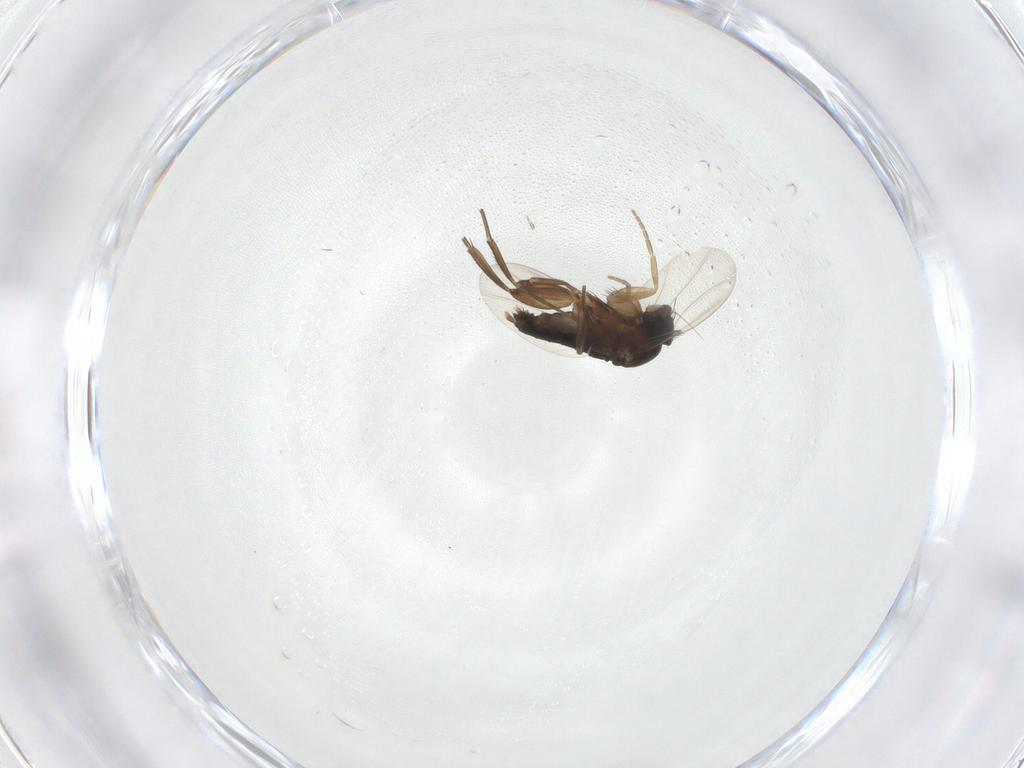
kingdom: Animalia
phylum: Arthropoda
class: Insecta
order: Diptera
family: Sciaridae
